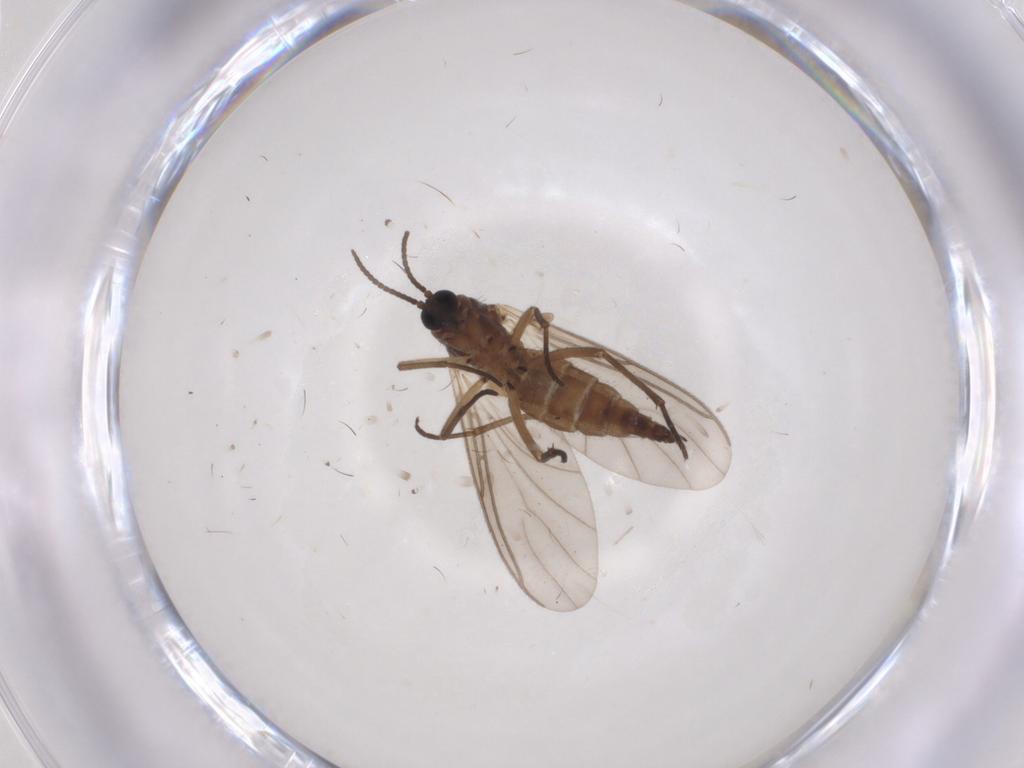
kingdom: Animalia
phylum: Arthropoda
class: Insecta
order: Diptera
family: Sciaridae
